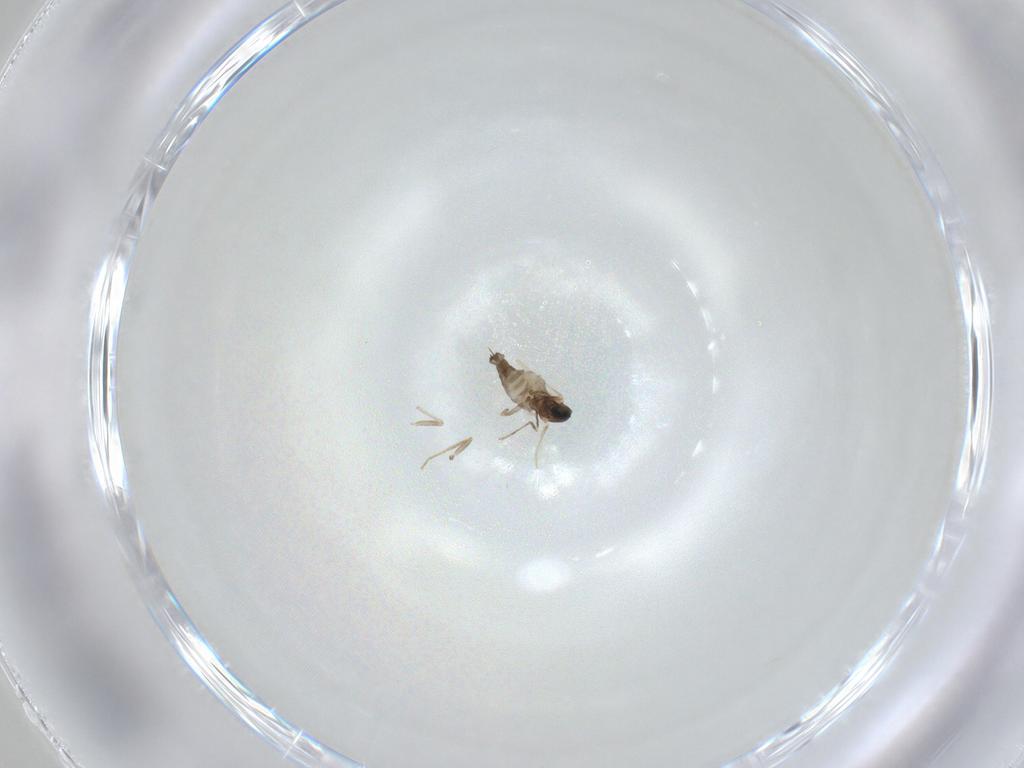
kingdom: Animalia
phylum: Arthropoda
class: Insecta
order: Diptera
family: Cecidomyiidae
